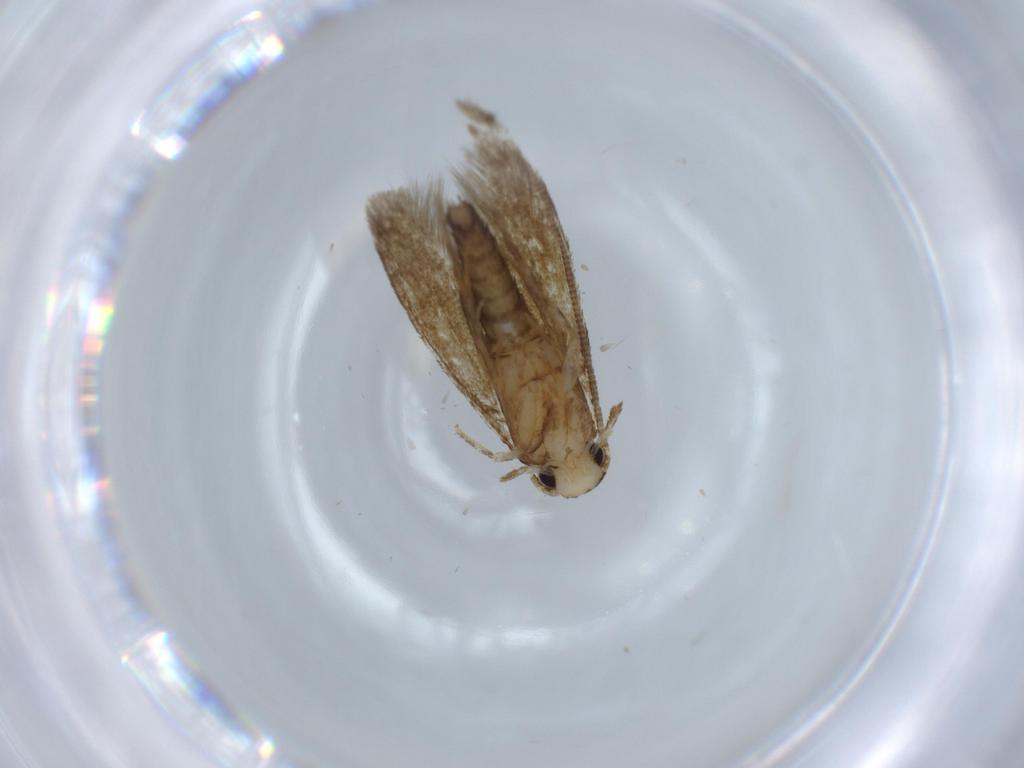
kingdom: Animalia
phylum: Arthropoda
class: Insecta
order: Lepidoptera
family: Tineidae
